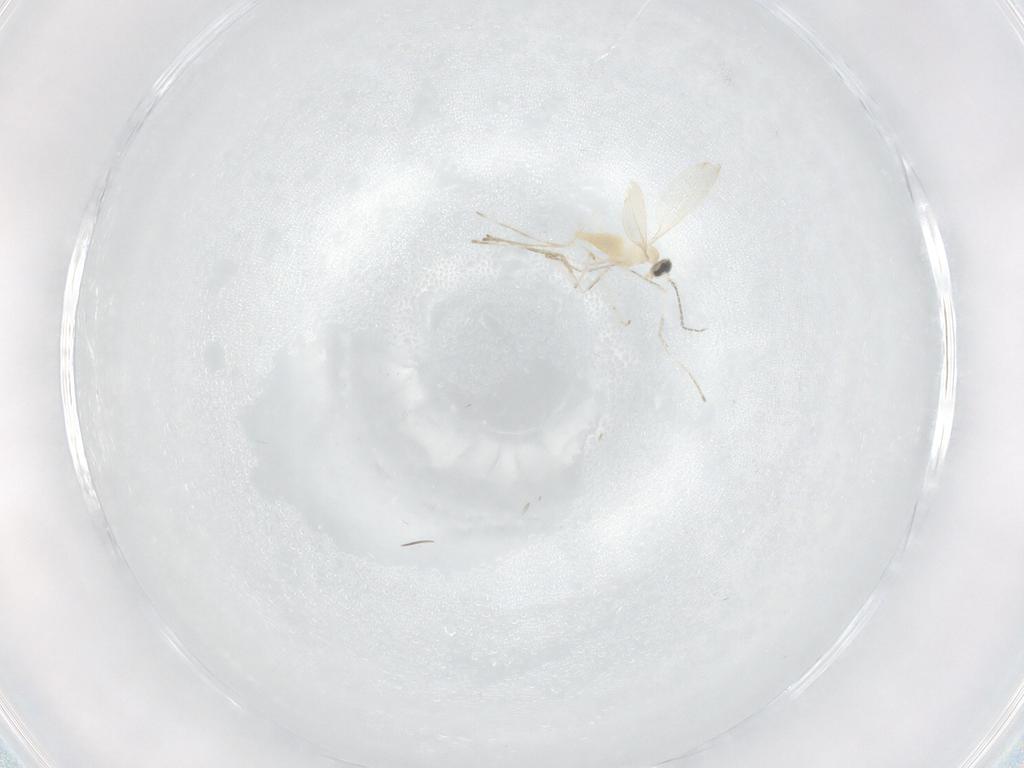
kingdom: Animalia
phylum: Arthropoda
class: Insecta
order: Diptera
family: Cecidomyiidae
